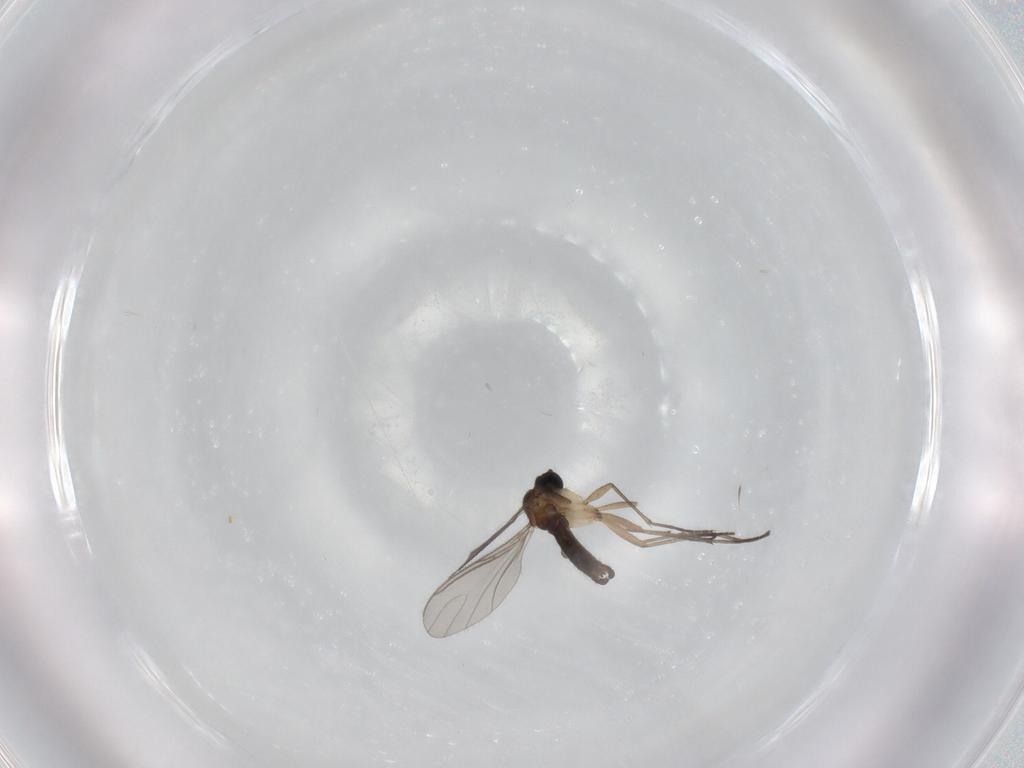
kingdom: Animalia
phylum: Arthropoda
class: Insecta
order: Diptera
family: Sciaridae
